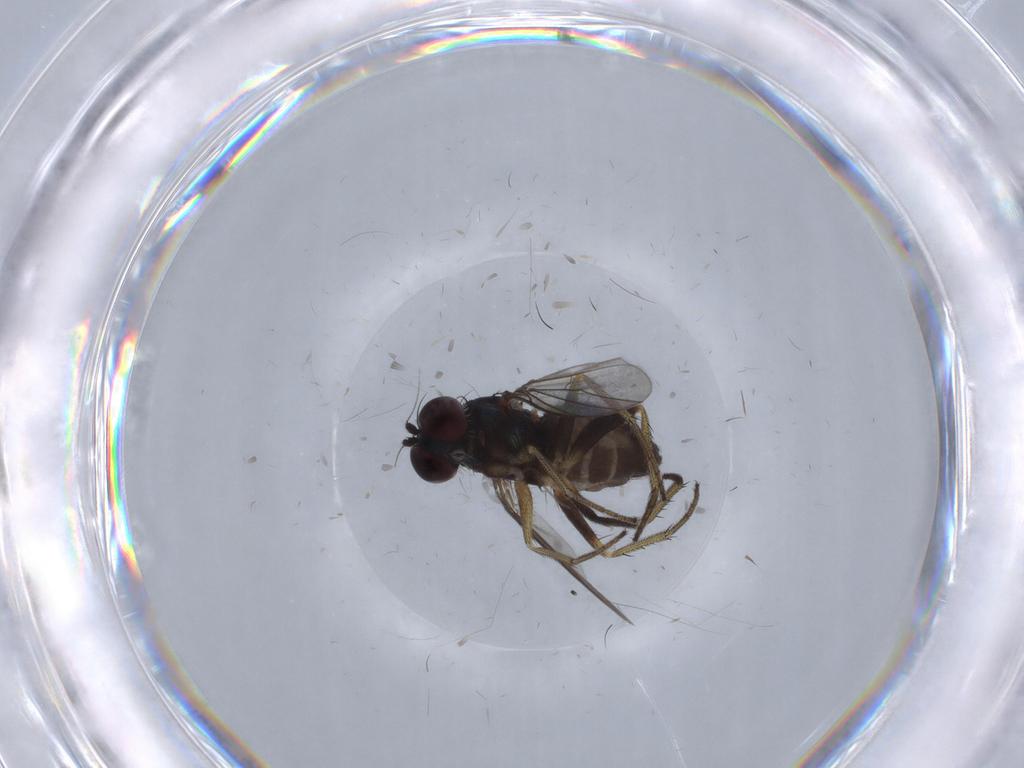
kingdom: Animalia
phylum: Arthropoda
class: Insecta
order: Diptera
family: Dolichopodidae
